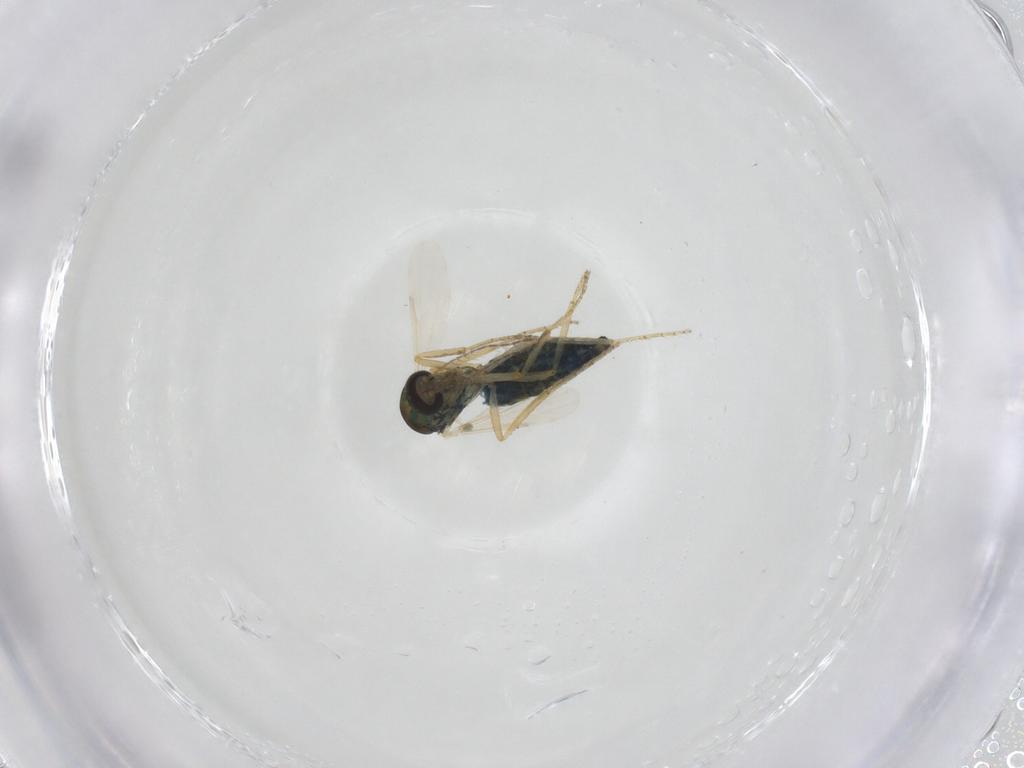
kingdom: Animalia
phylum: Arthropoda
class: Insecta
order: Diptera
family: Ceratopogonidae
